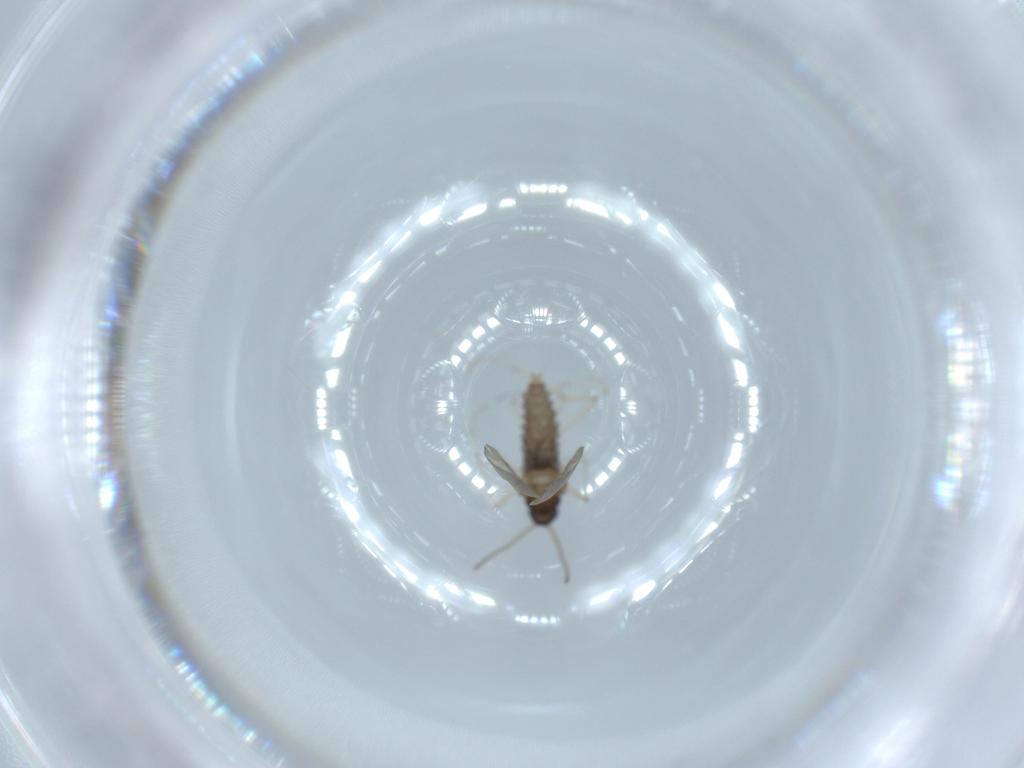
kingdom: Animalia
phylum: Arthropoda
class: Insecta
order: Diptera
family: Cecidomyiidae
